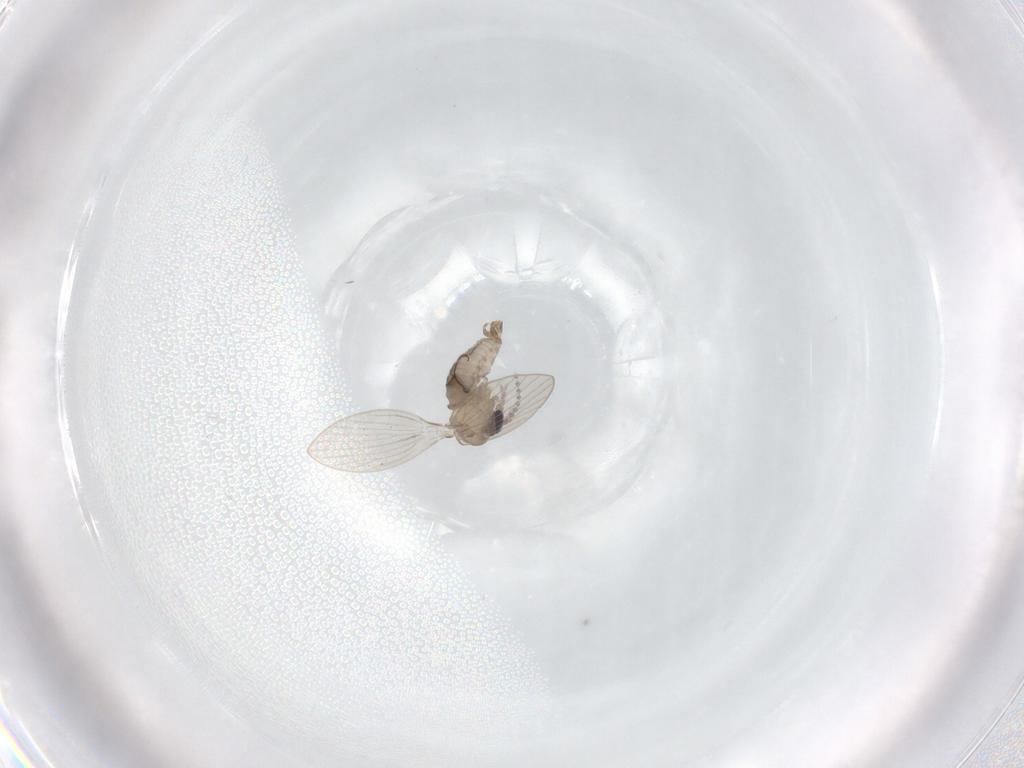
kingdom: Animalia
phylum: Arthropoda
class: Insecta
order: Diptera
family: Psychodidae
